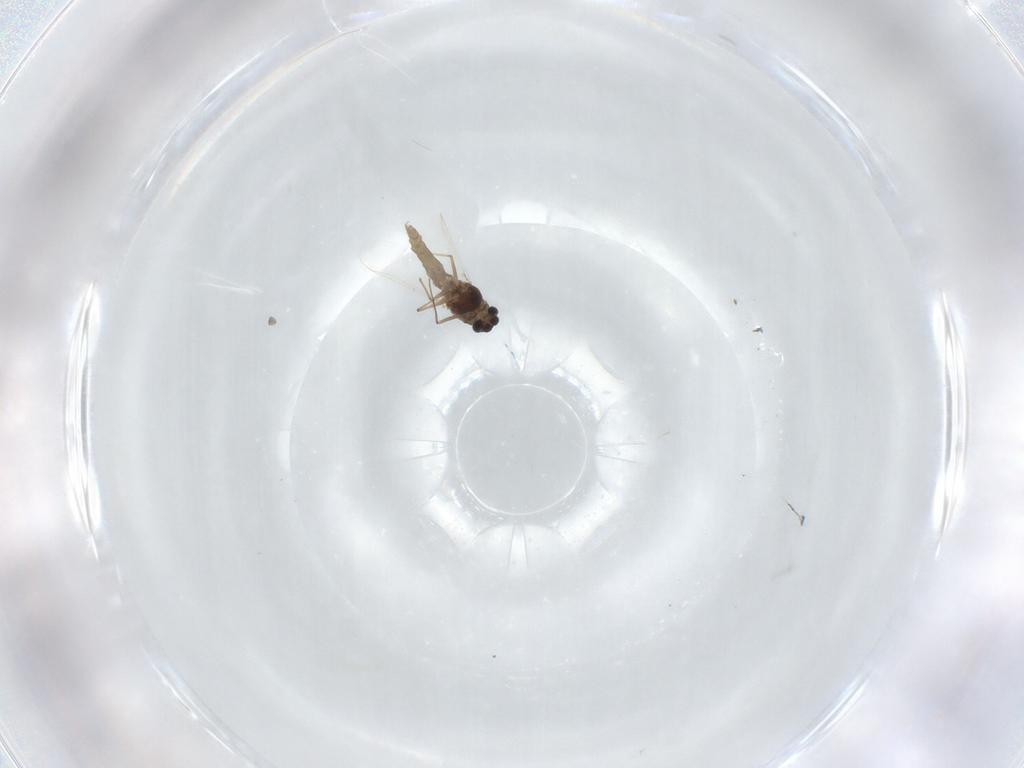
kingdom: Animalia
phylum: Arthropoda
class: Insecta
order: Diptera
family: Chironomidae
